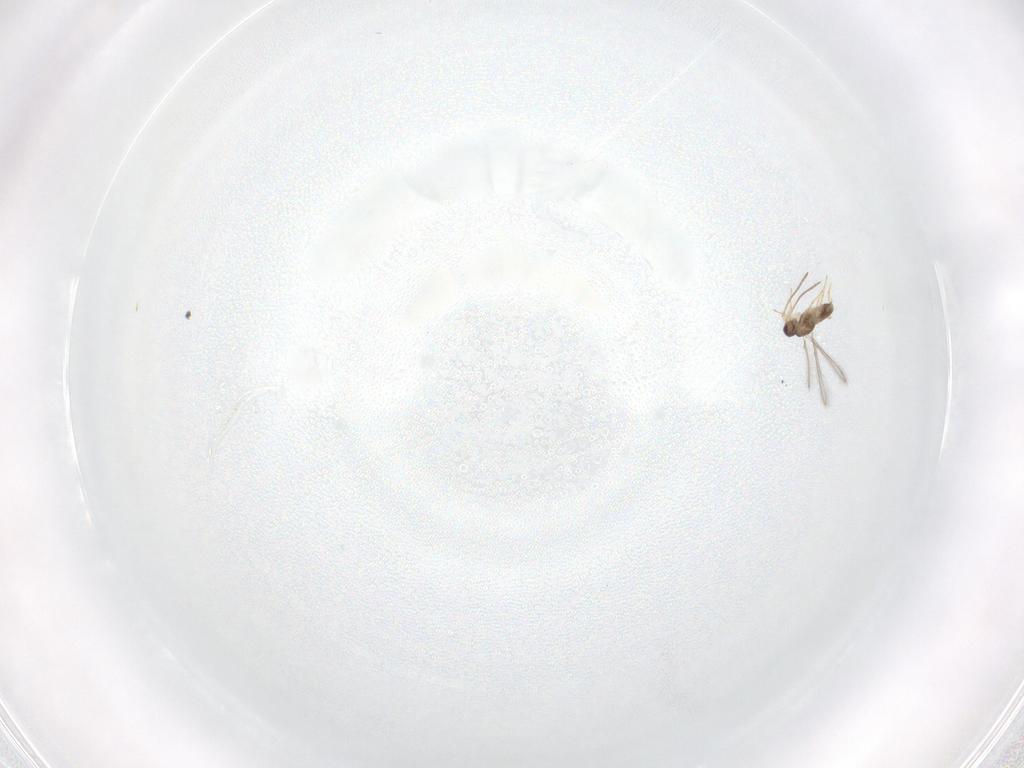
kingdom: Animalia
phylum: Arthropoda
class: Insecta
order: Hymenoptera
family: Mymaridae
